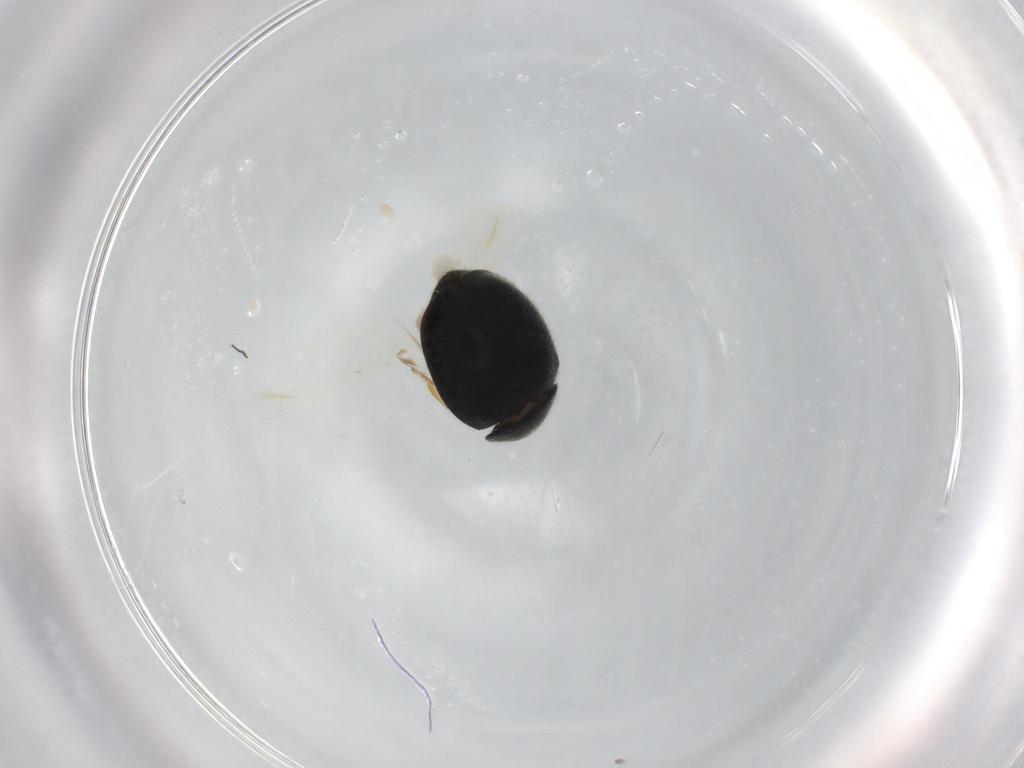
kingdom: Animalia
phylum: Arthropoda
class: Insecta
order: Coleoptera
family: Coccinellidae
